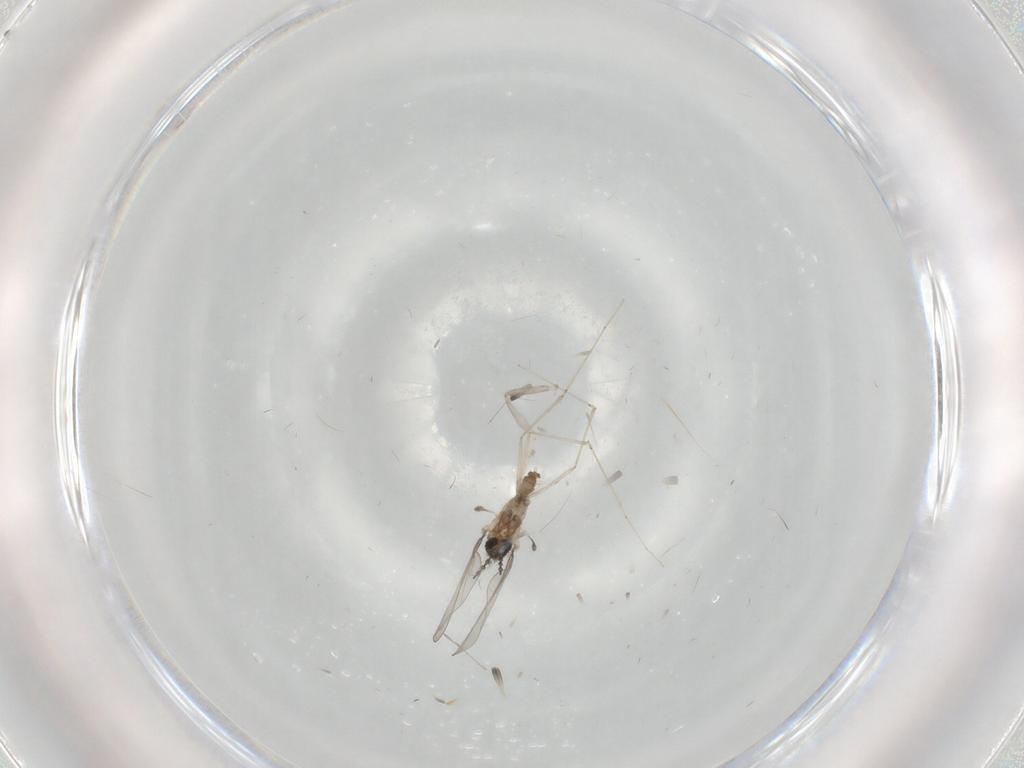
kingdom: Animalia
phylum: Arthropoda
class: Insecta
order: Diptera
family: Cecidomyiidae
